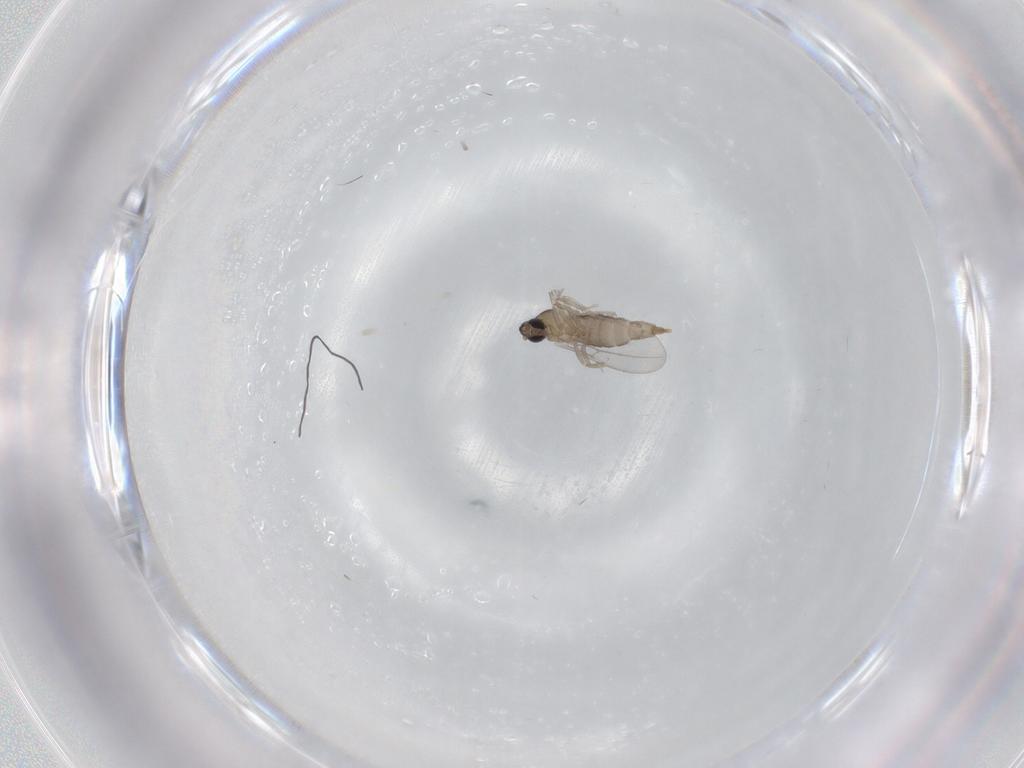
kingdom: Animalia
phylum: Arthropoda
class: Insecta
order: Diptera
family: Cecidomyiidae
